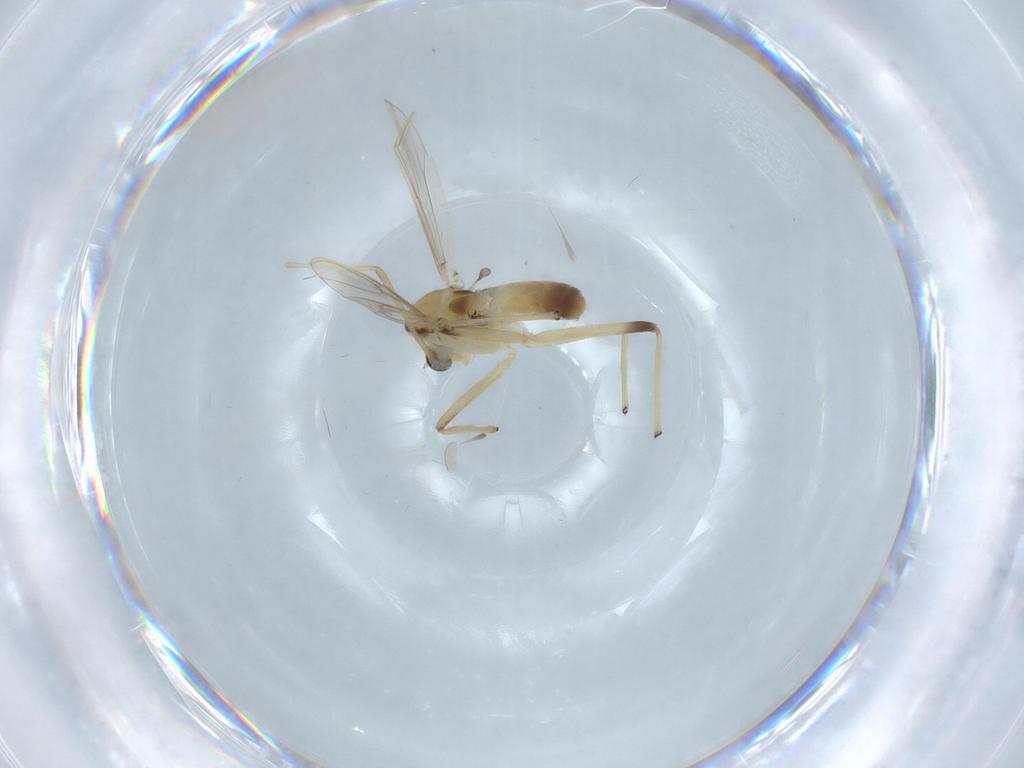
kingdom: Animalia
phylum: Arthropoda
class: Insecta
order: Diptera
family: Chironomidae
